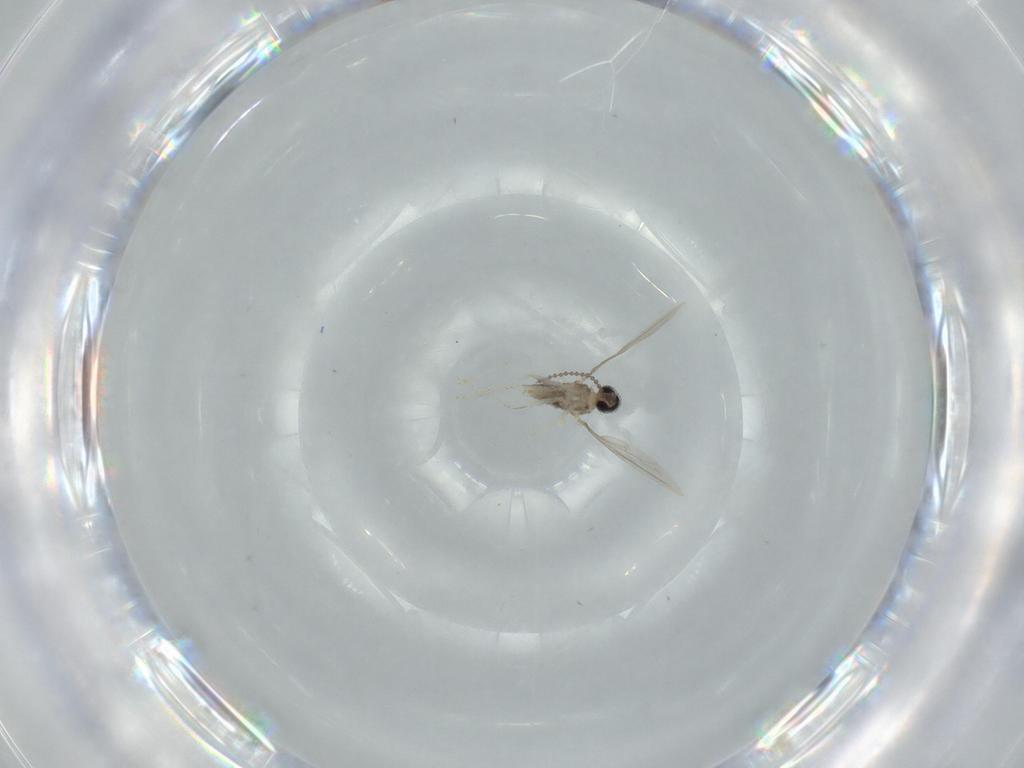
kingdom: Animalia
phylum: Arthropoda
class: Insecta
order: Diptera
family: Cecidomyiidae
